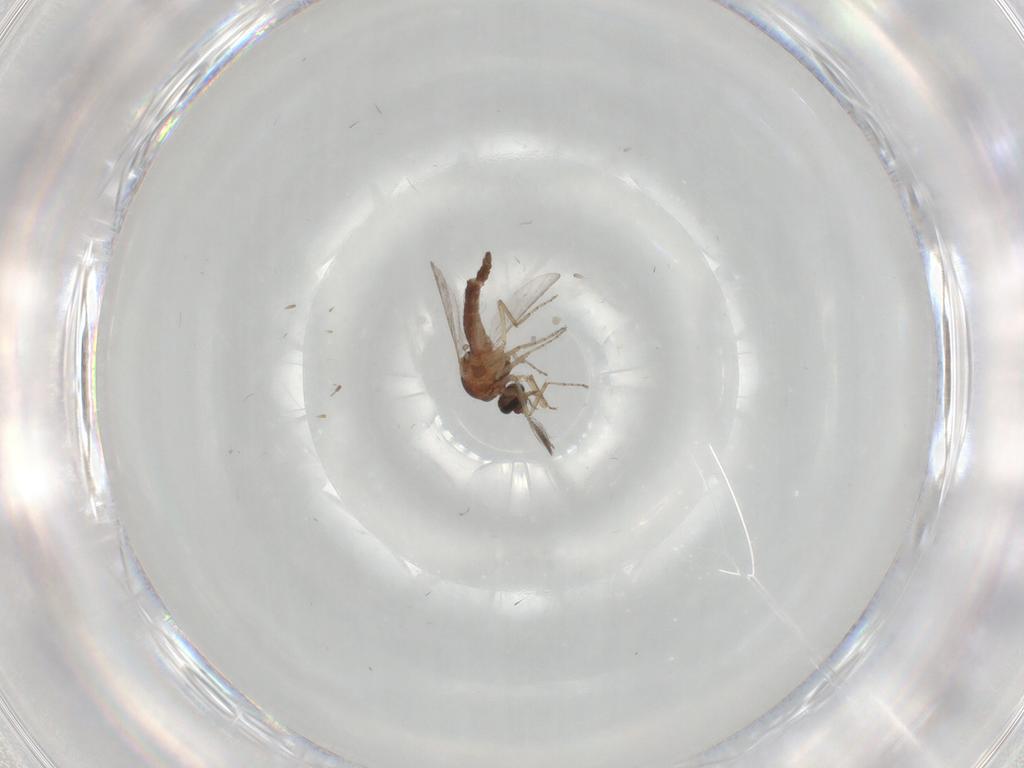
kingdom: Animalia
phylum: Arthropoda
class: Insecta
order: Diptera
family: Ceratopogonidae
